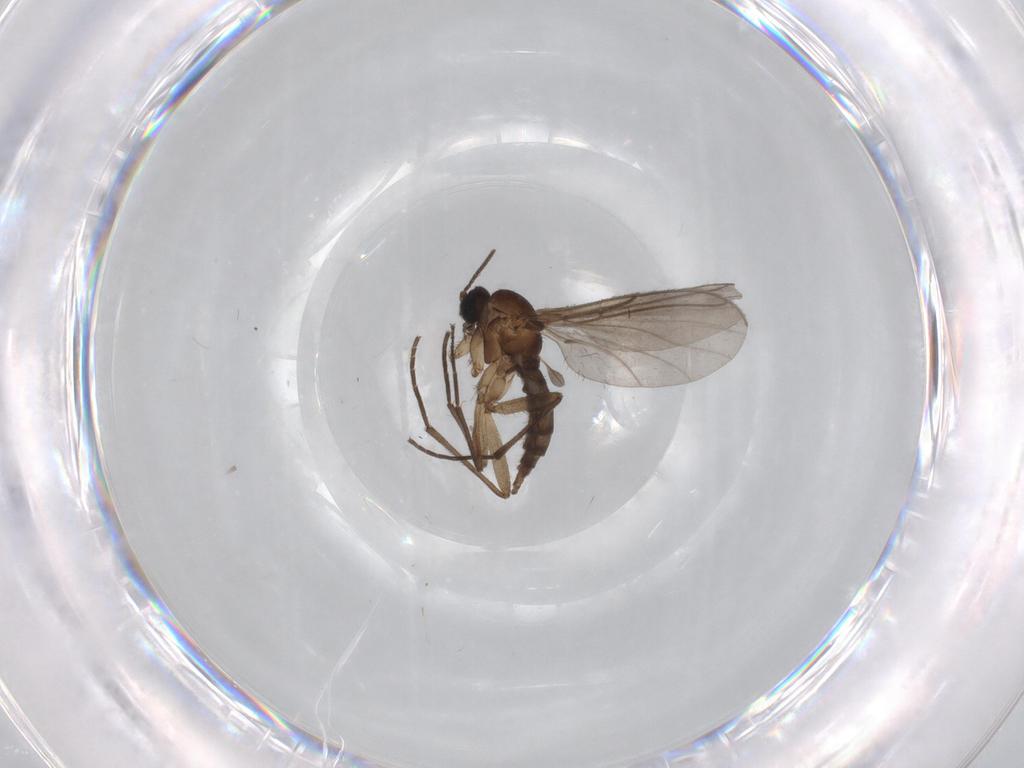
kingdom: Animalia
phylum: Arthropoda
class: Insecta
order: Diptera
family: Sciaridae
